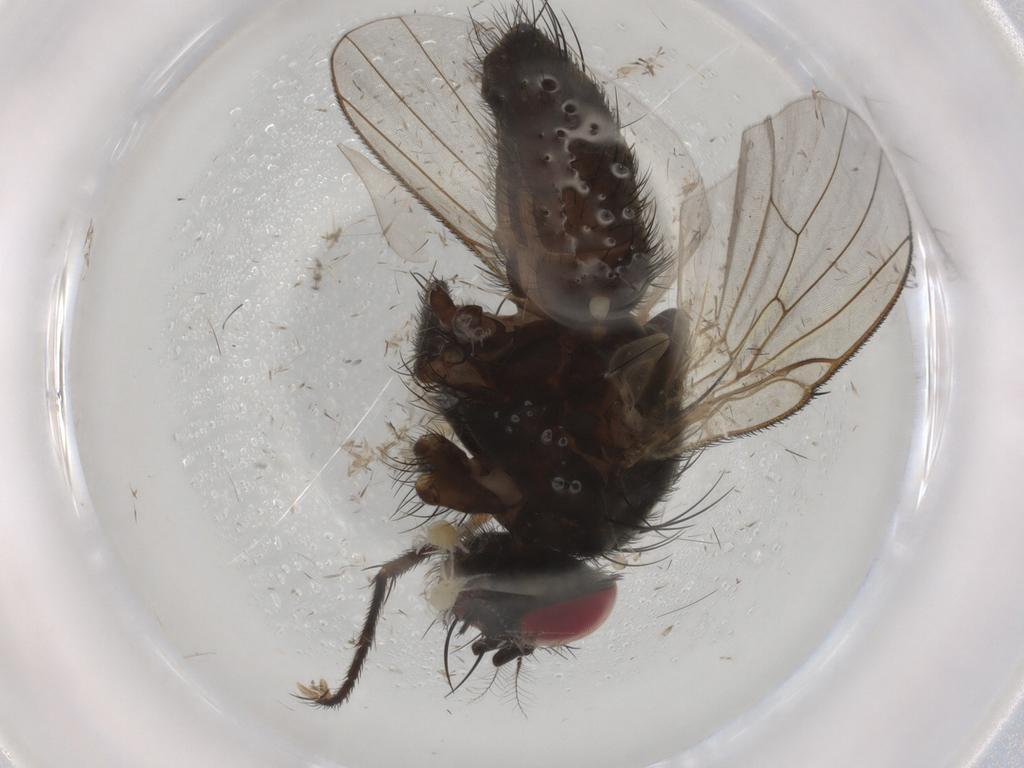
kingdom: Animalia
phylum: Arthropoda
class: Insecta
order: Diptera
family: Muscidae
